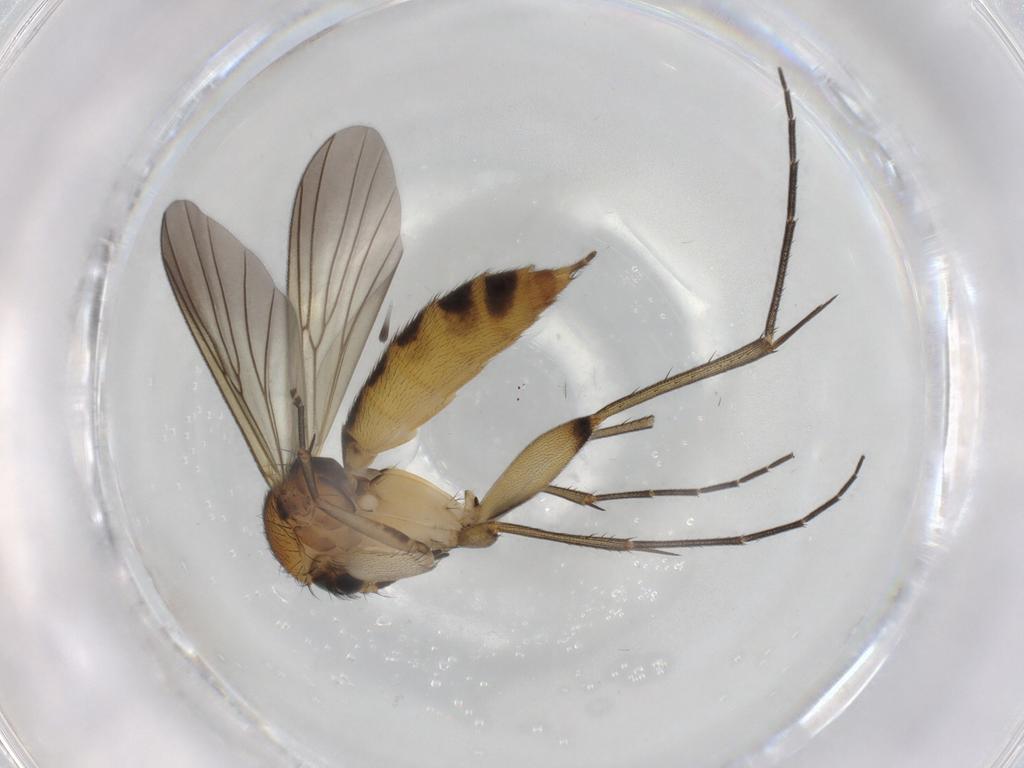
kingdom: Animalia
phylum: Arthropoda
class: Insecta
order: Diptera
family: Mycetophilidae
